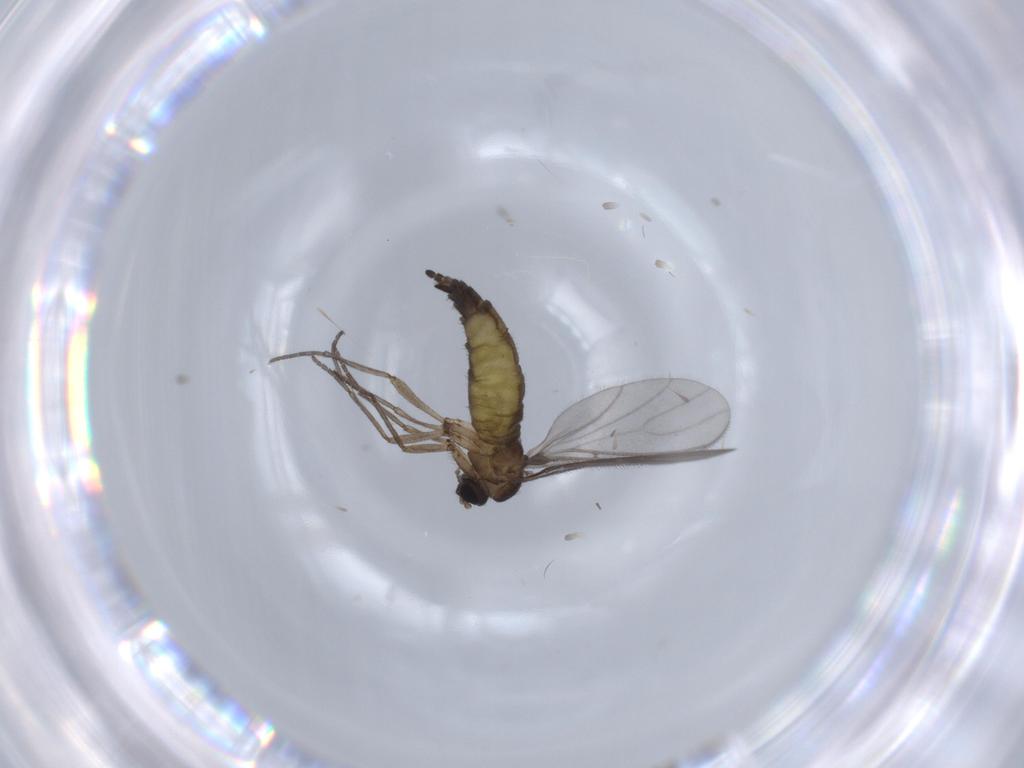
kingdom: Animalia
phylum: Arthropoda
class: Insecta
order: Diptera
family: Sciaridae
